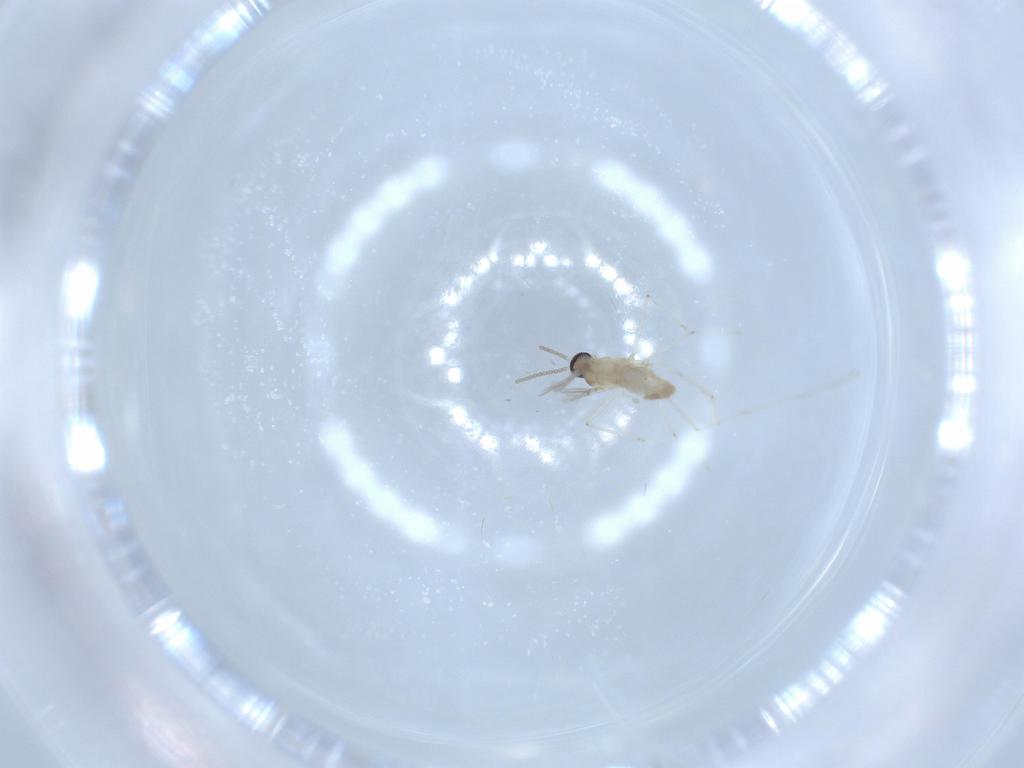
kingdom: Animalia
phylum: Arthropoda
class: Insecta
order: Diptera
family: Cecidomyiidae
